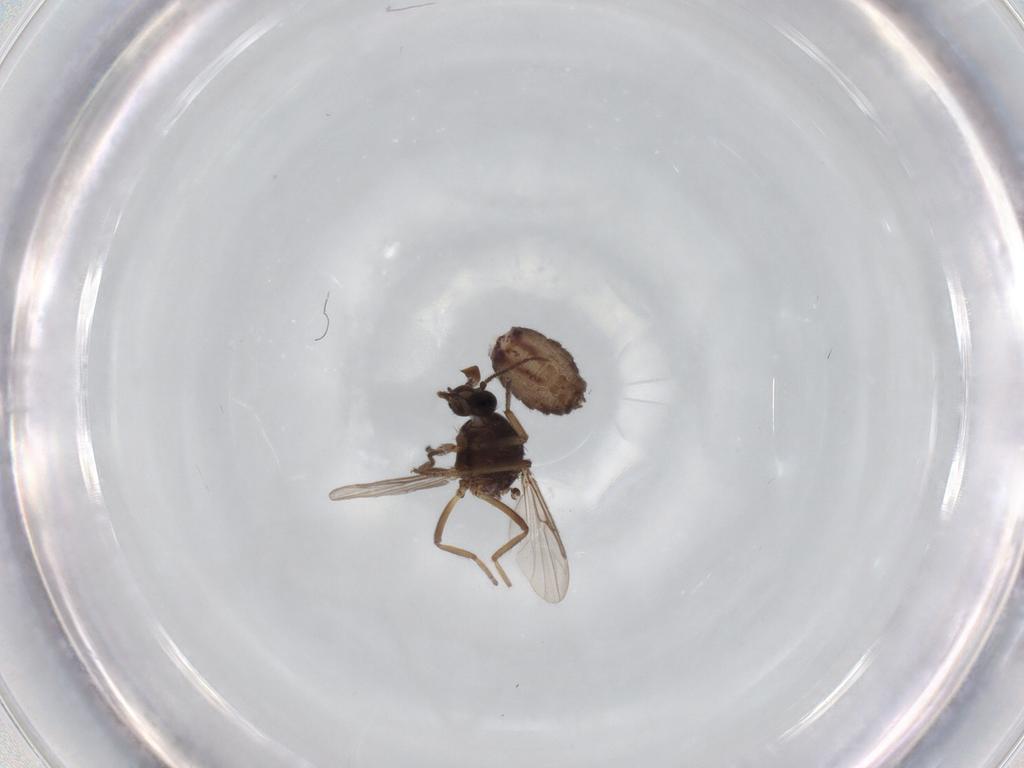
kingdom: Animalia
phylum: Arthropoda
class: Insecta
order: Diptera
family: Ceratopogonidae
